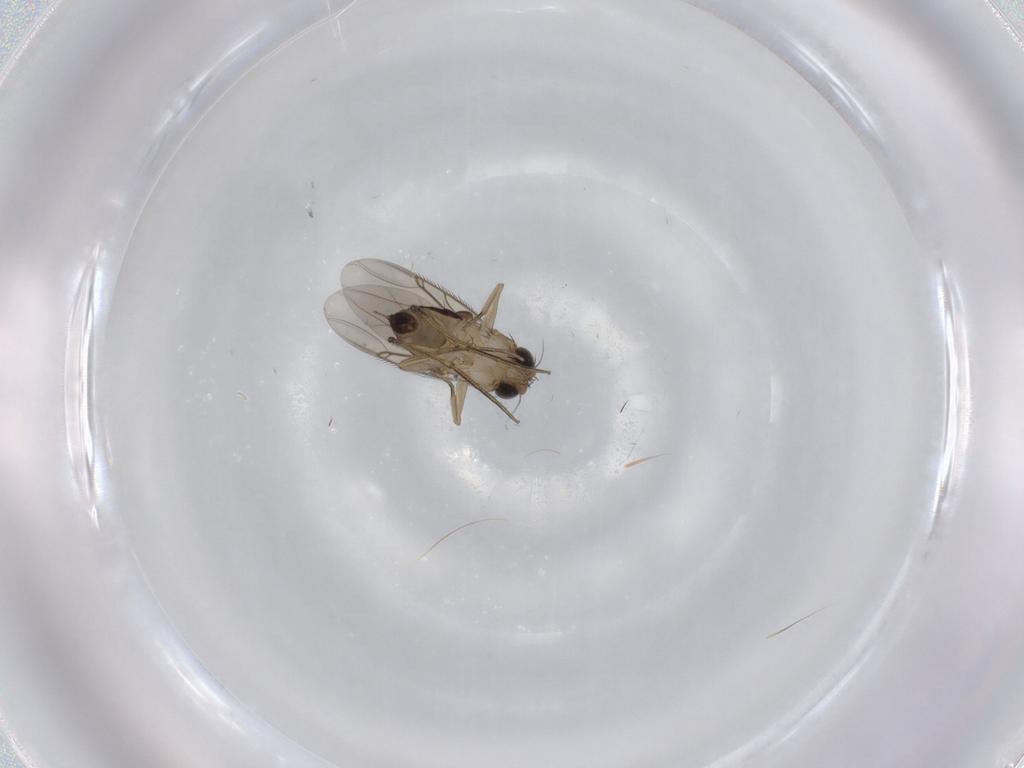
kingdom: Animalia
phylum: Arthropoda
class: Insecta
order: Diptera
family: Phoridae
